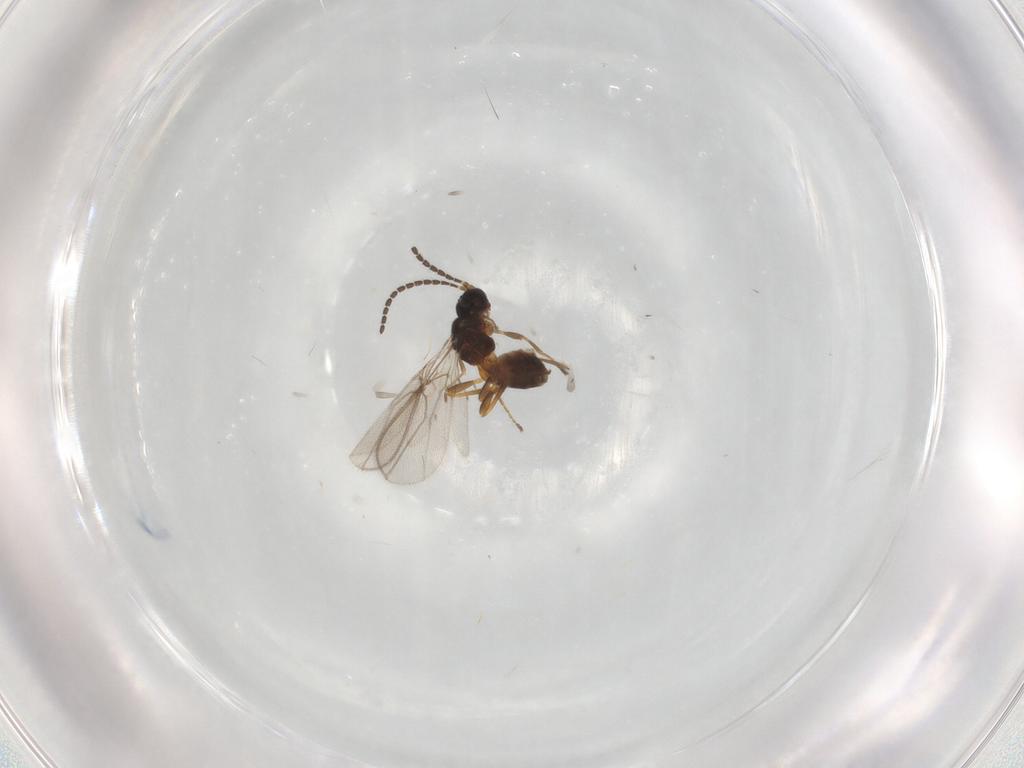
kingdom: Animalia
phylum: Arthropoda
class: Insecta
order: Hymenoptera
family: Braconidae
